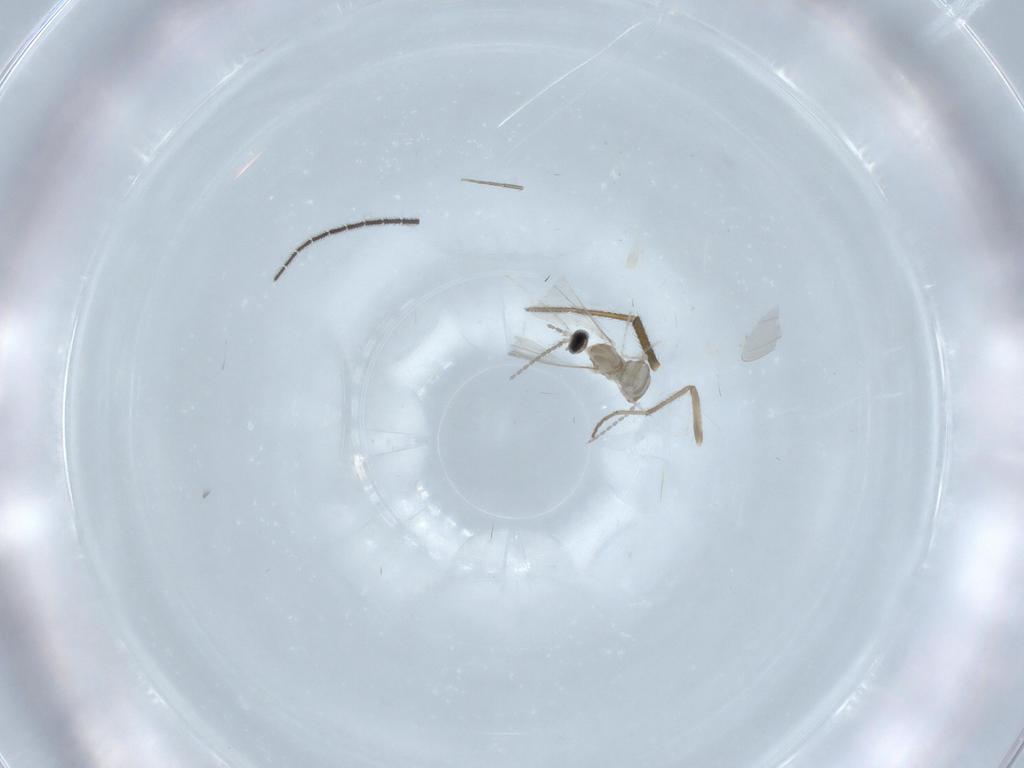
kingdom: Animalia
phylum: Arthropoda
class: Insecta
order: Diptera
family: Cecidomyiidae
